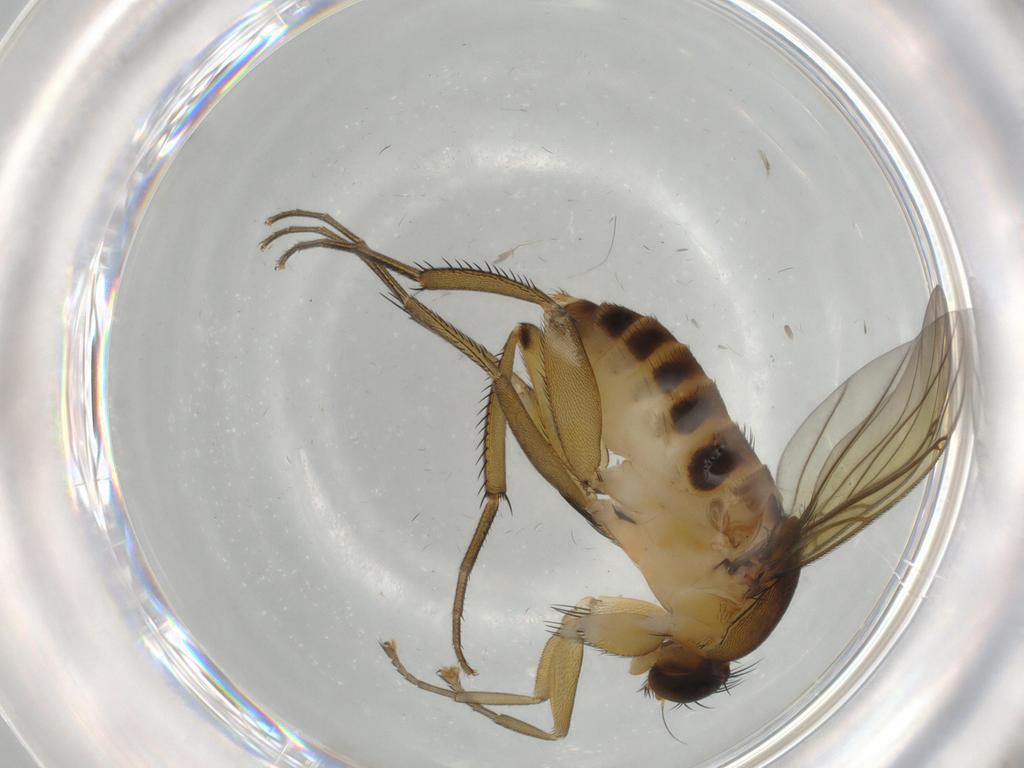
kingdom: Animalia
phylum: Arthropoda
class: Insecta
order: Diptera
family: Phoridae
